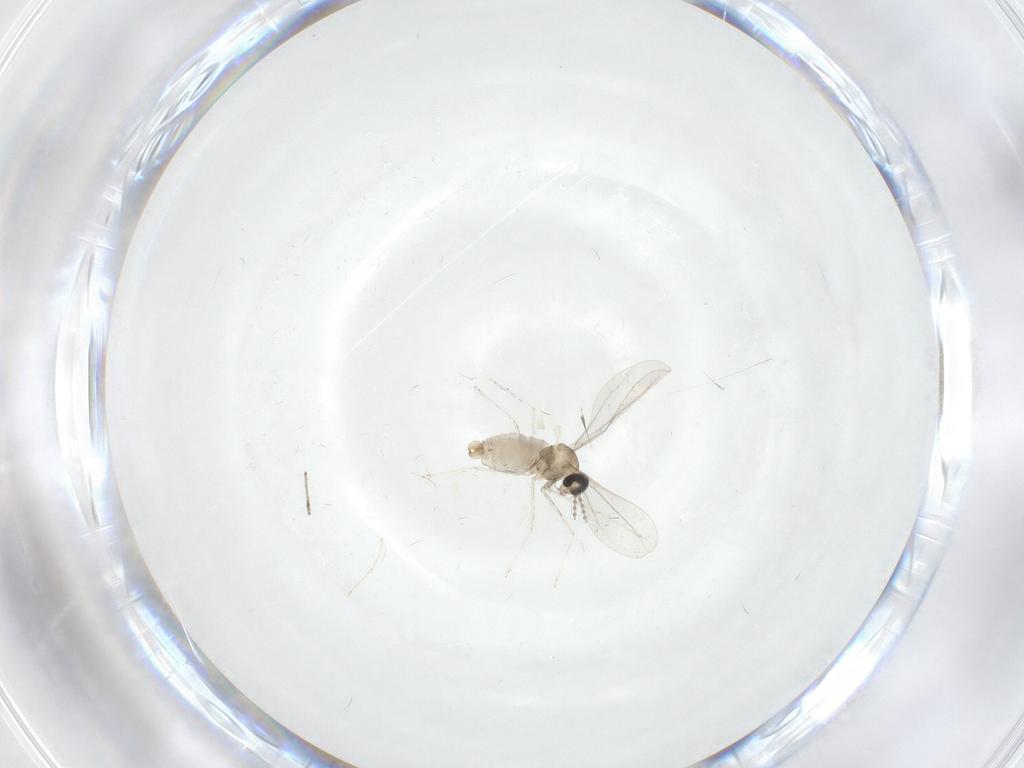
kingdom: Animalia
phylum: Arthropoda
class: Insecta
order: Diptera
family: Cecidomyiidae
